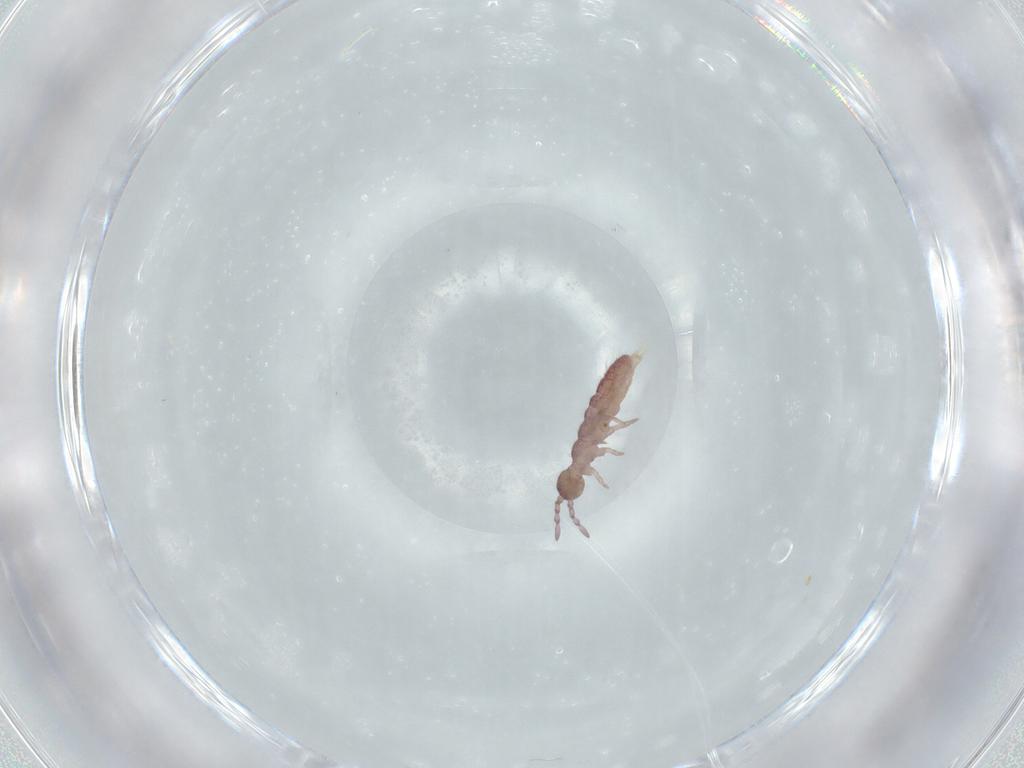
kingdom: Animalia
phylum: Arthropoda
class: Collembola
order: Entomobryomorpha
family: Isotomidae
